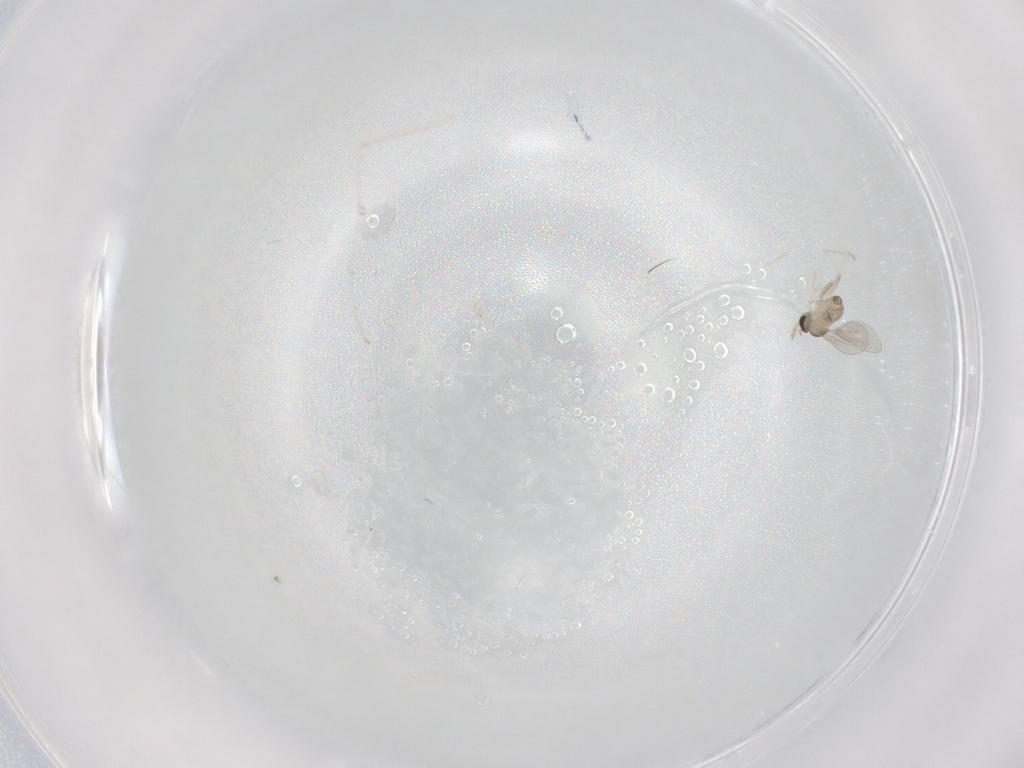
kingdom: Animalia
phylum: Arthropoda
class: Insecta
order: Diptera
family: Cecidomyiidae
